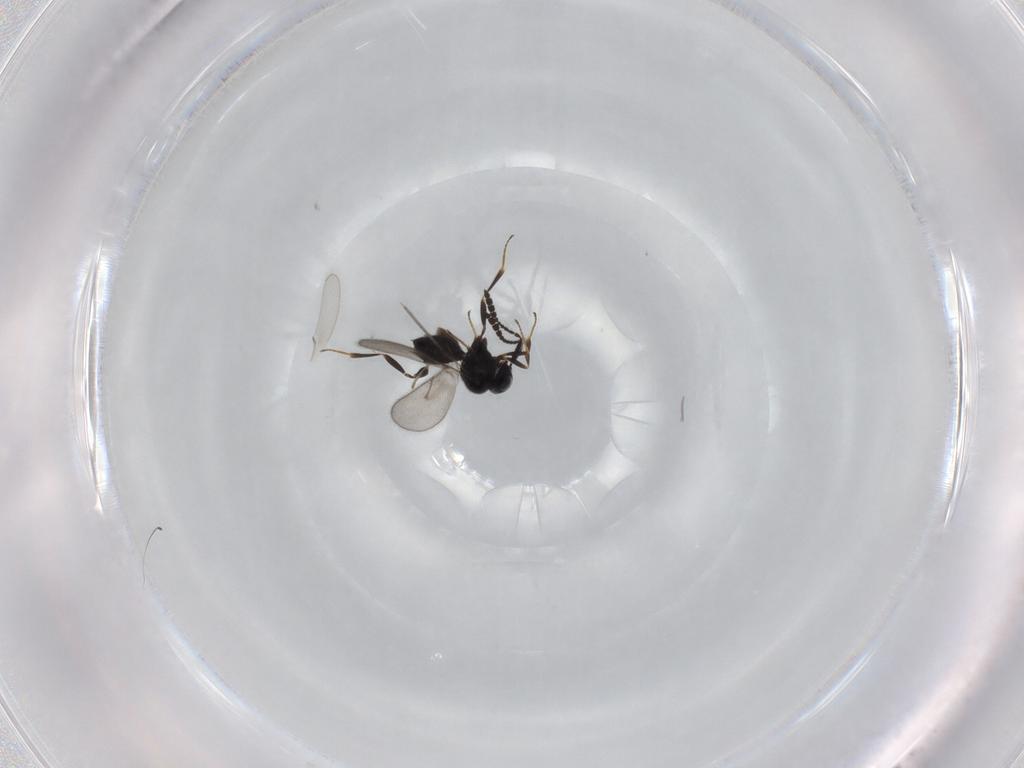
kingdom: Animalia
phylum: Arthropoda
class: Insecta
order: Hymenoptera
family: Scelionidae
